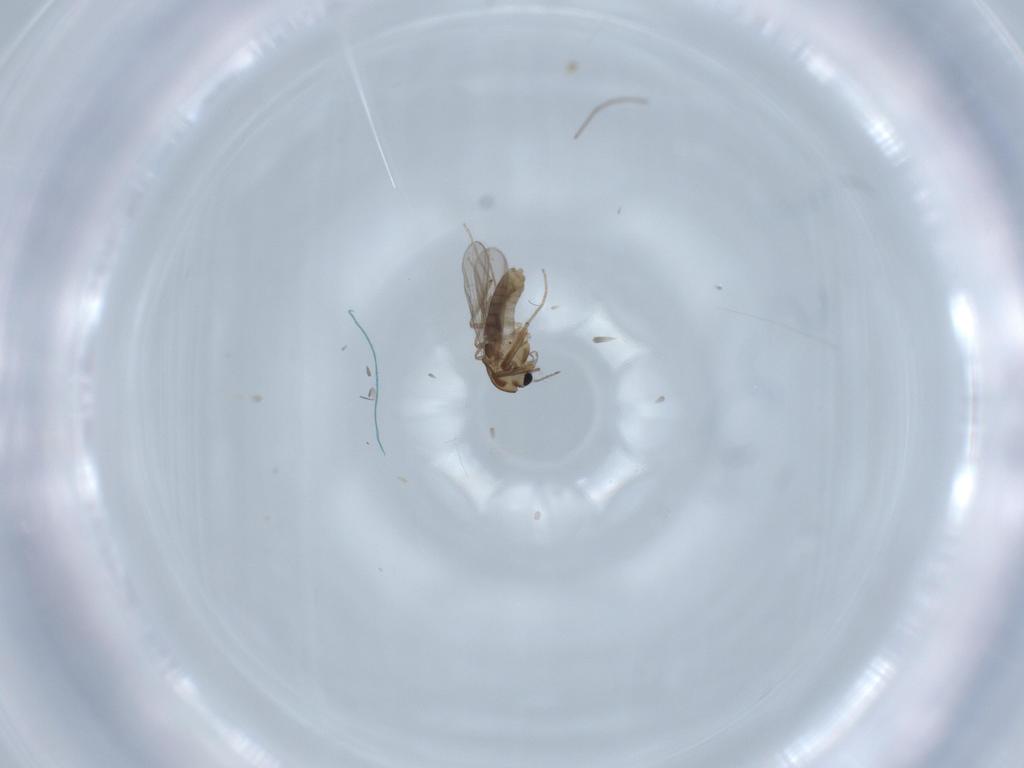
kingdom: Animalia
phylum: Arthropoda
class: Insecta
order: Diptera
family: Chironomidae
